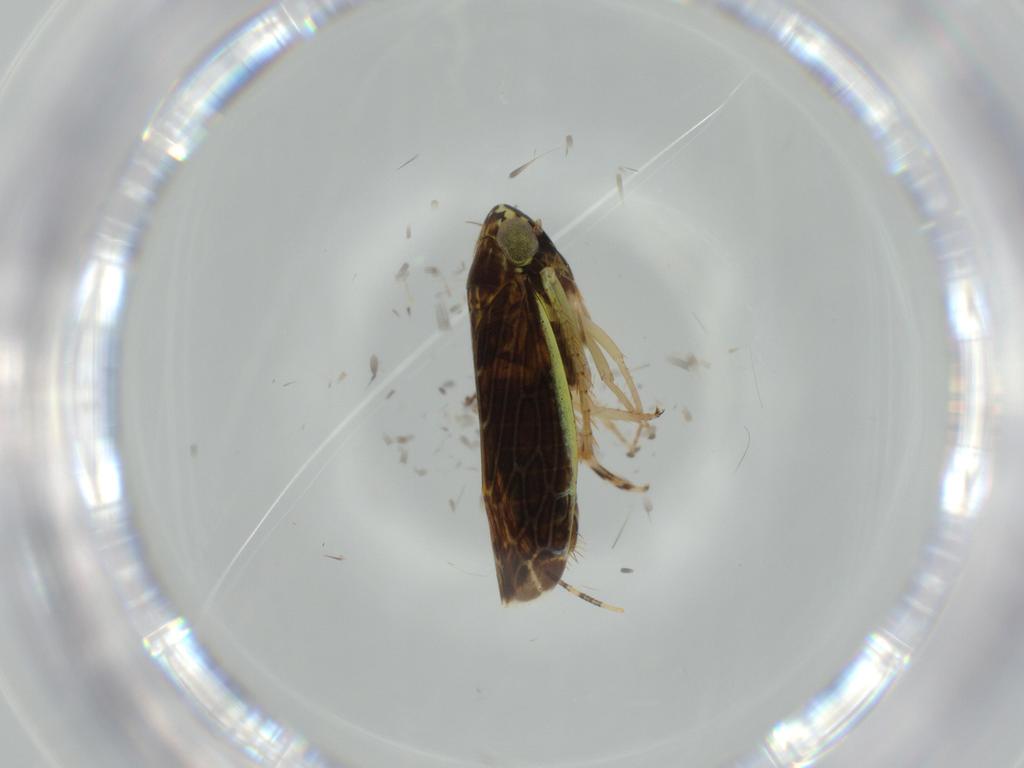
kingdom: Animalia
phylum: Arthropoda
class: Insecta
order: Hemiptera
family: Cicadellidae
